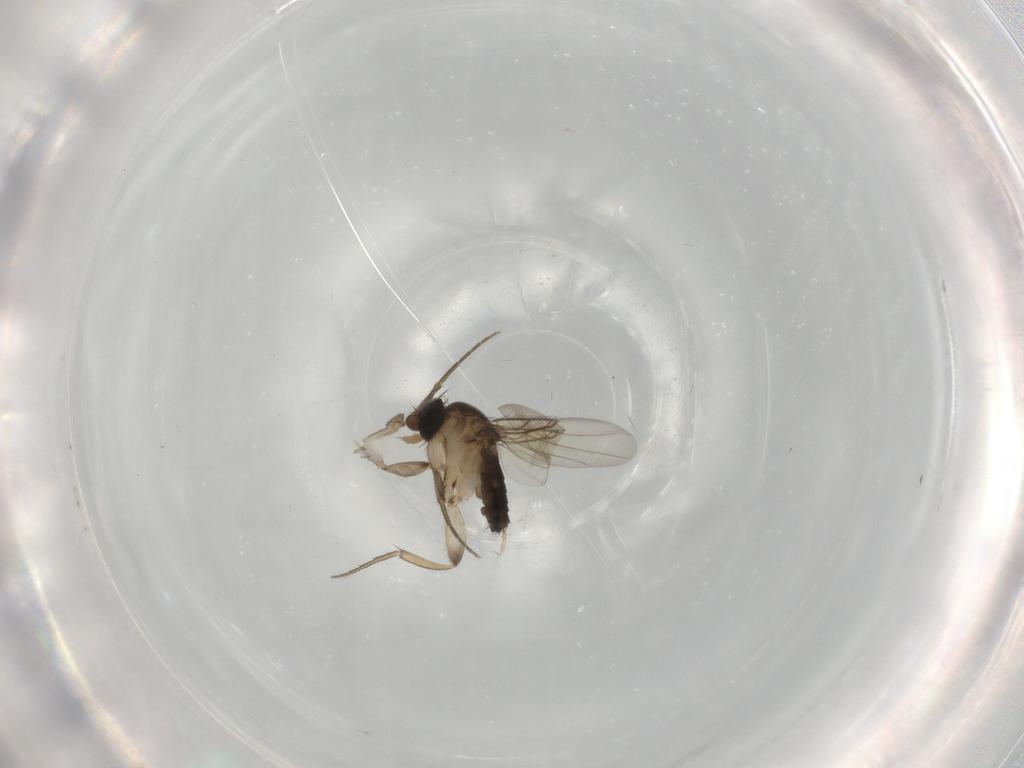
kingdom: Animalia
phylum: Arthropoda
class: Insecta
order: Diptera
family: Phoridae
